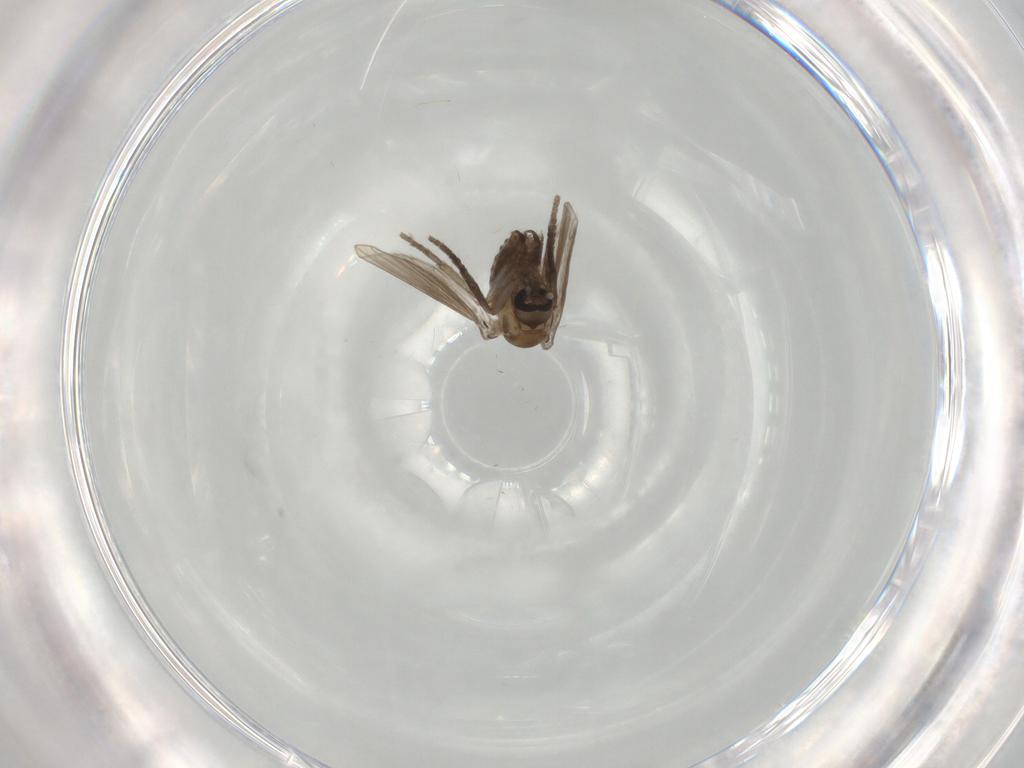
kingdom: Animalia
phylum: Arthropoda
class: Insecta
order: Diptera
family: Psychodidae
